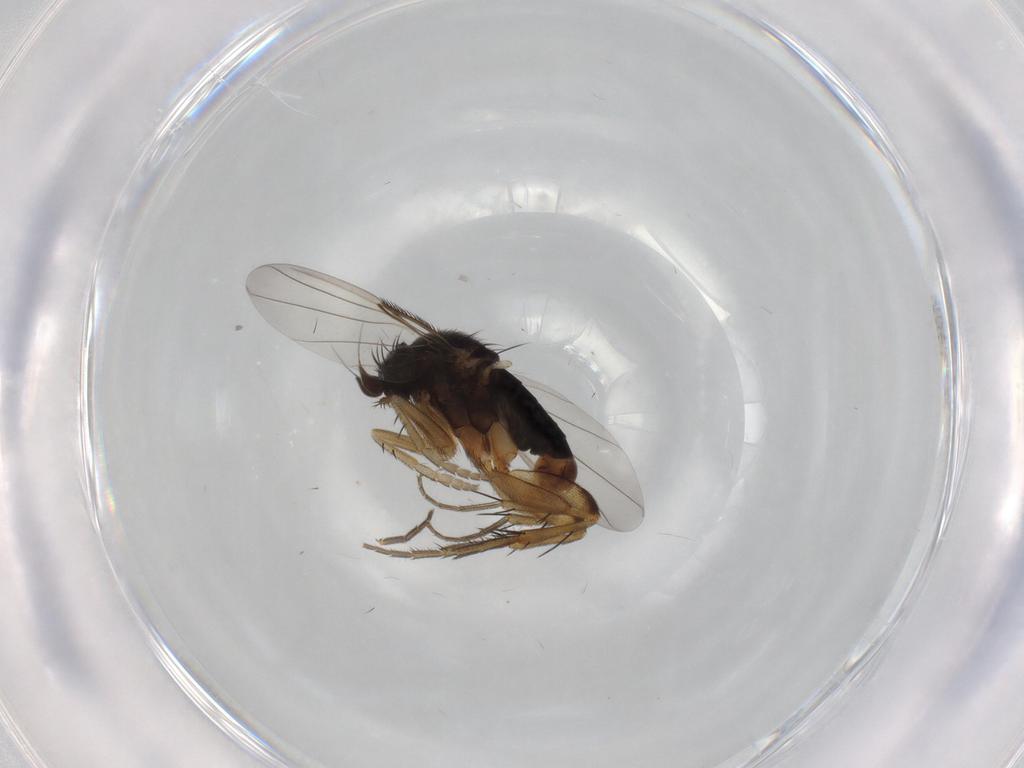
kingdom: Animalia
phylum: Arthropoda
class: Insecta
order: Diptera
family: Phoridae
